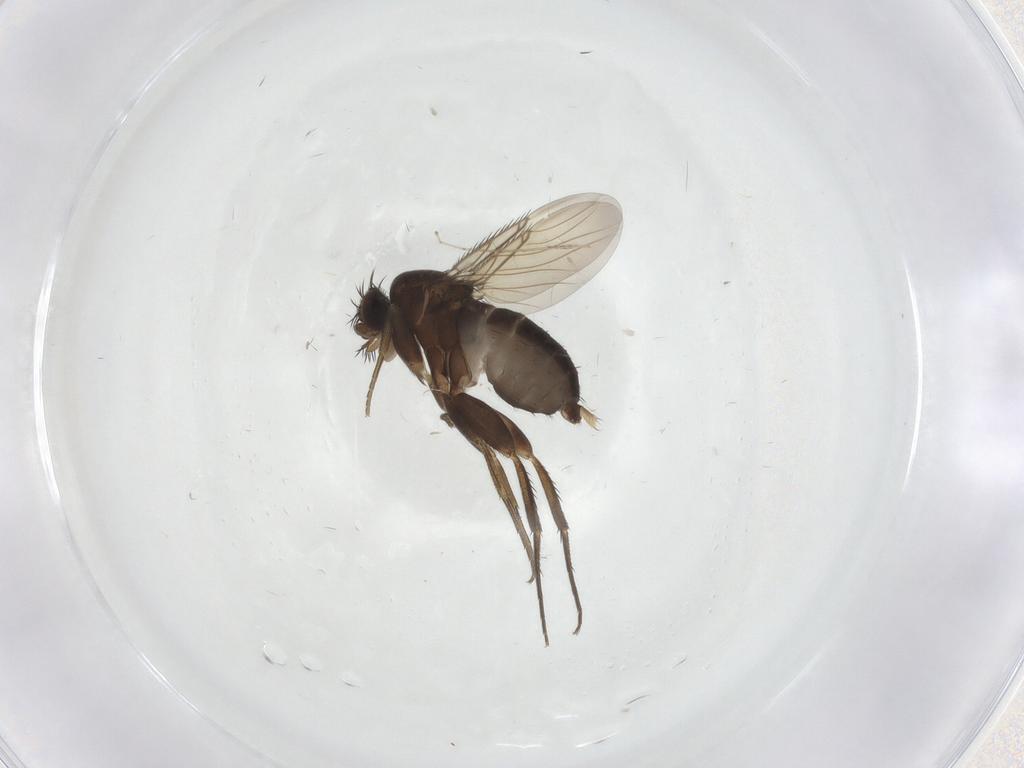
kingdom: Animalia
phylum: Arthropoda
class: Insecta
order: Diptera
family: Phoridae
